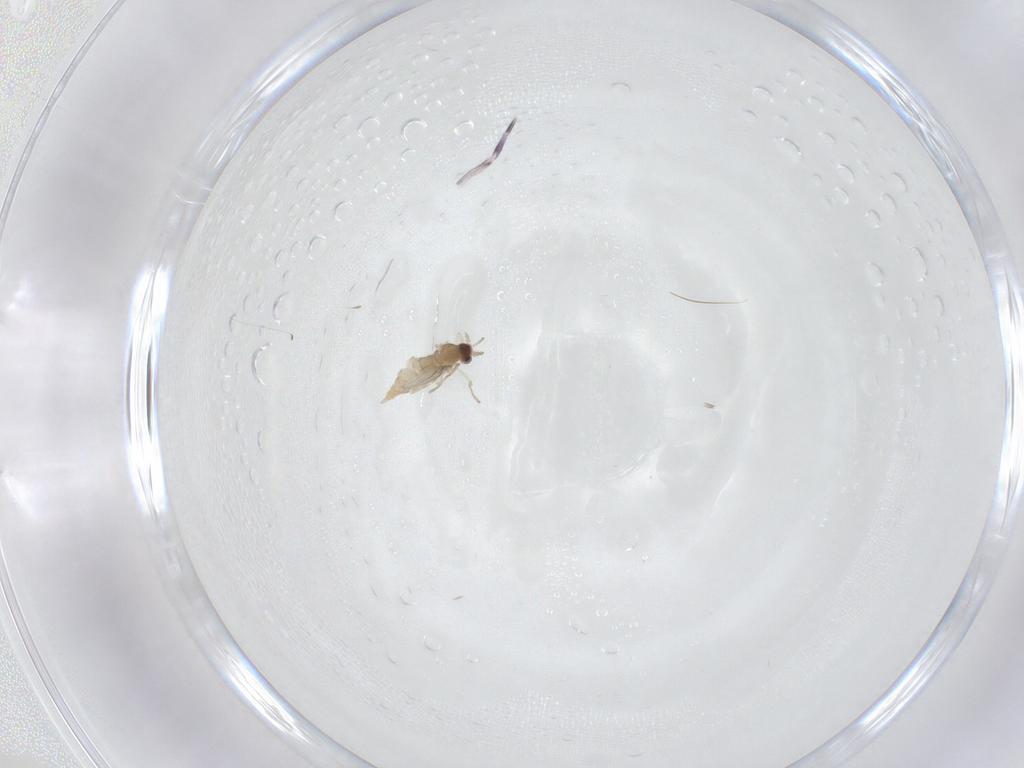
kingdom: Animalia
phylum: Arthropoda
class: Insecta
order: Diptera
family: Cecidomyiidae
